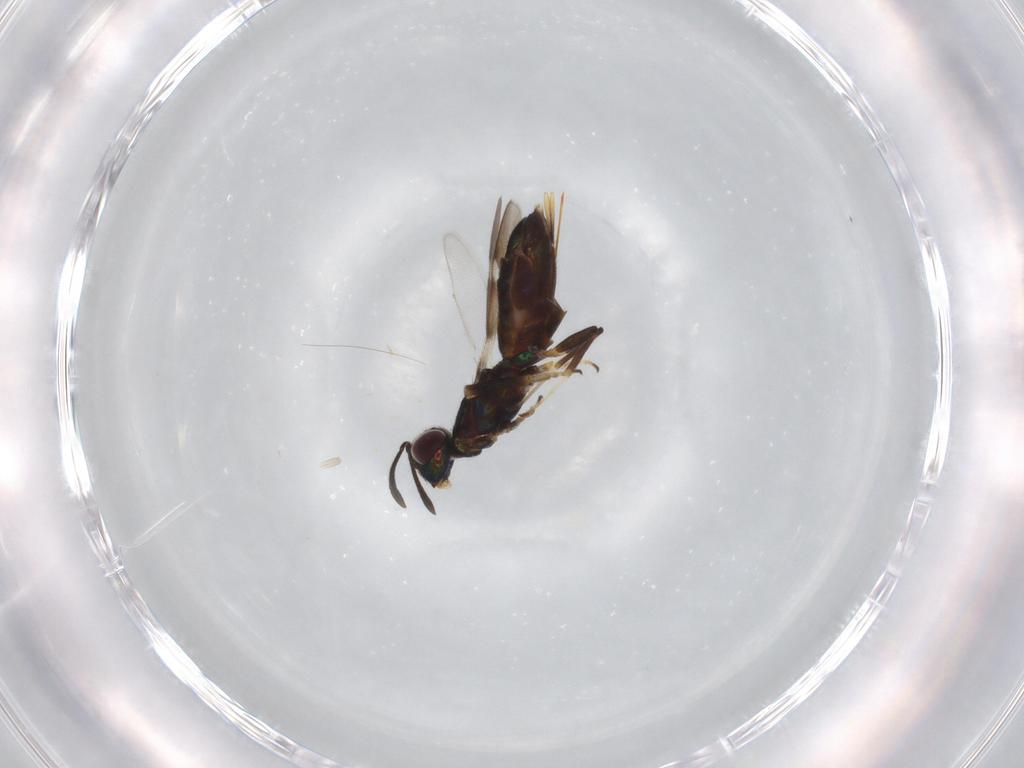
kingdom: Animalia
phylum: Arthropoda
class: Insecta
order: Hymenoptera
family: Eupelmidae
